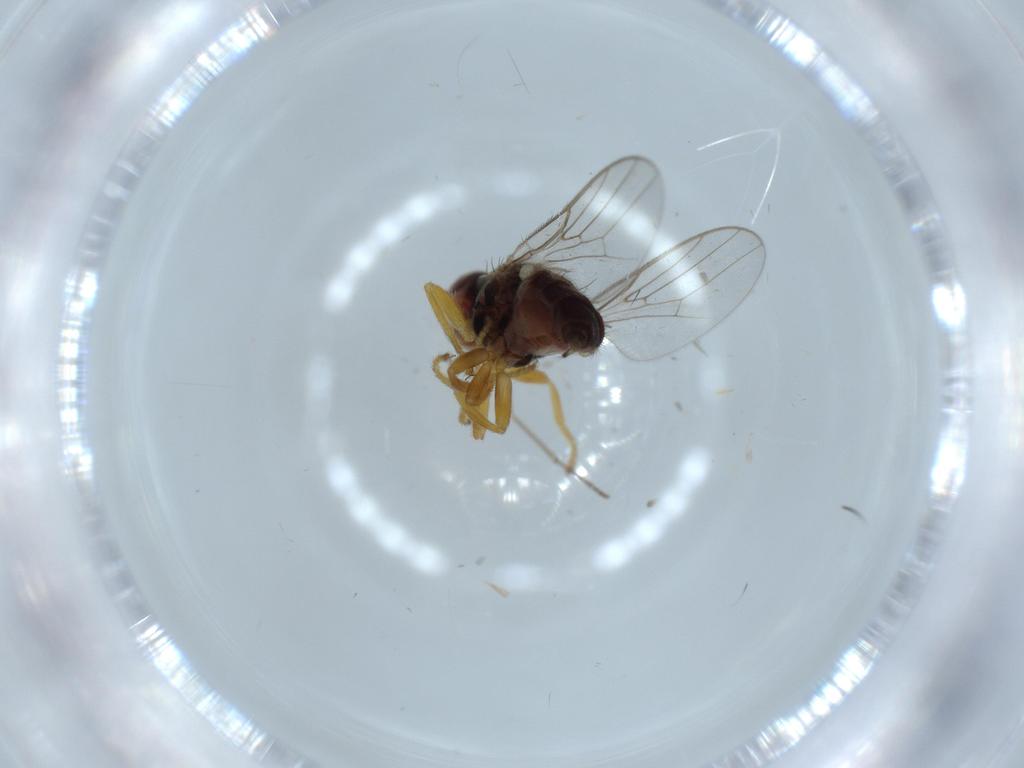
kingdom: Animalia
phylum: Arthropoda
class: Insecta
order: Diptera
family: Chloropidae
